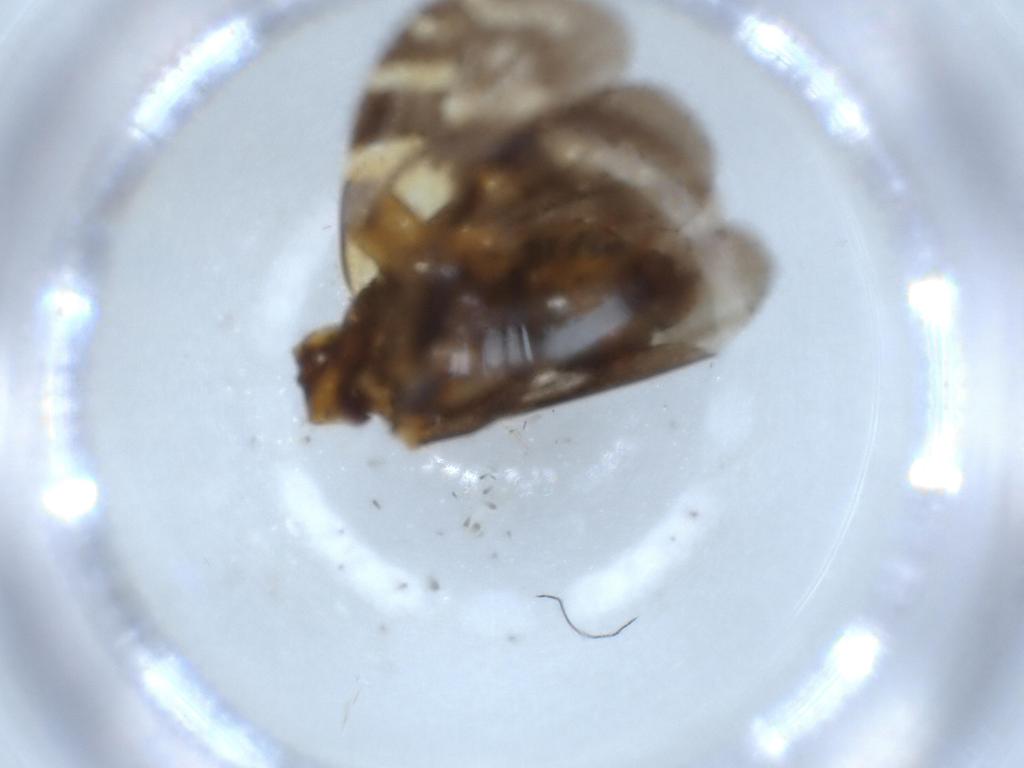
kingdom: Animalia
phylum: Arthropoda
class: Insecta
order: Hemiptera
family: Cixiidae
